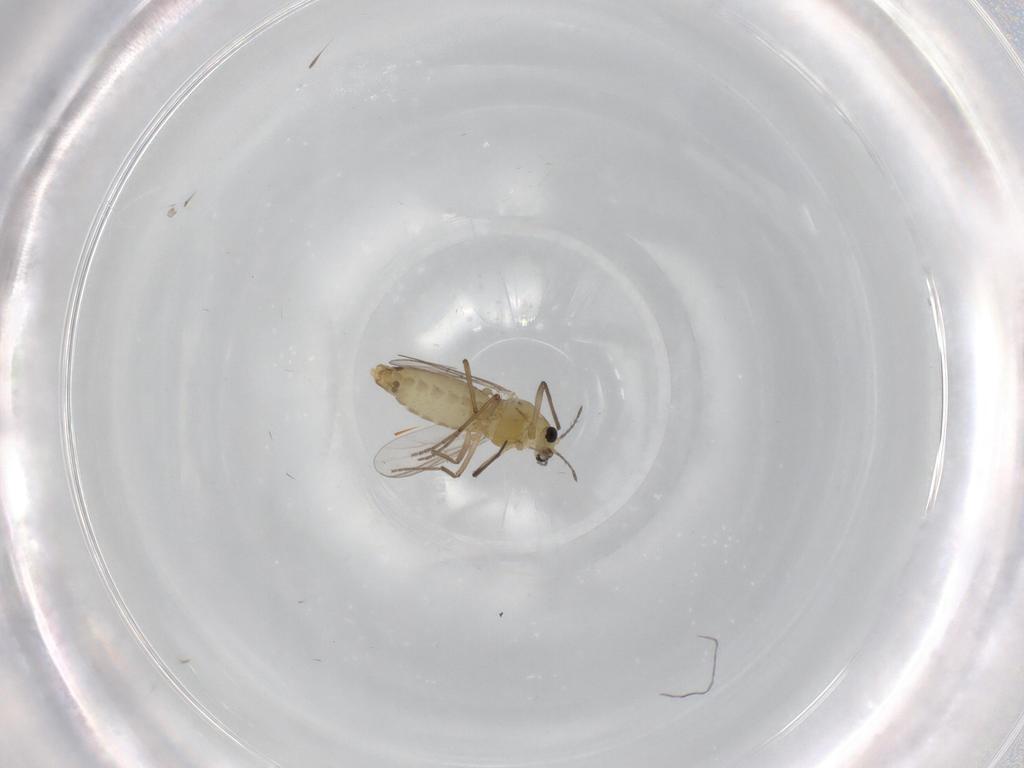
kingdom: Animalia
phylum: Arthropoda
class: Insecta
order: Diptera
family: Chironomidae
